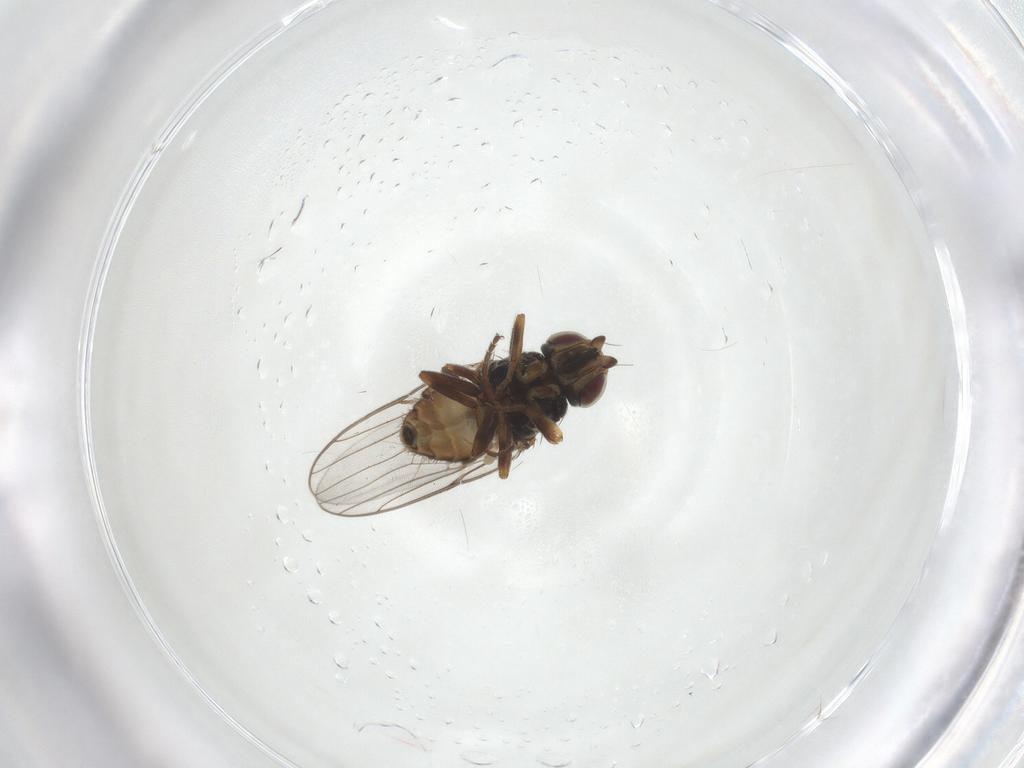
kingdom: Animalia
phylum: Arthropoda
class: Insecta
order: Diptera
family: Chloropidae
